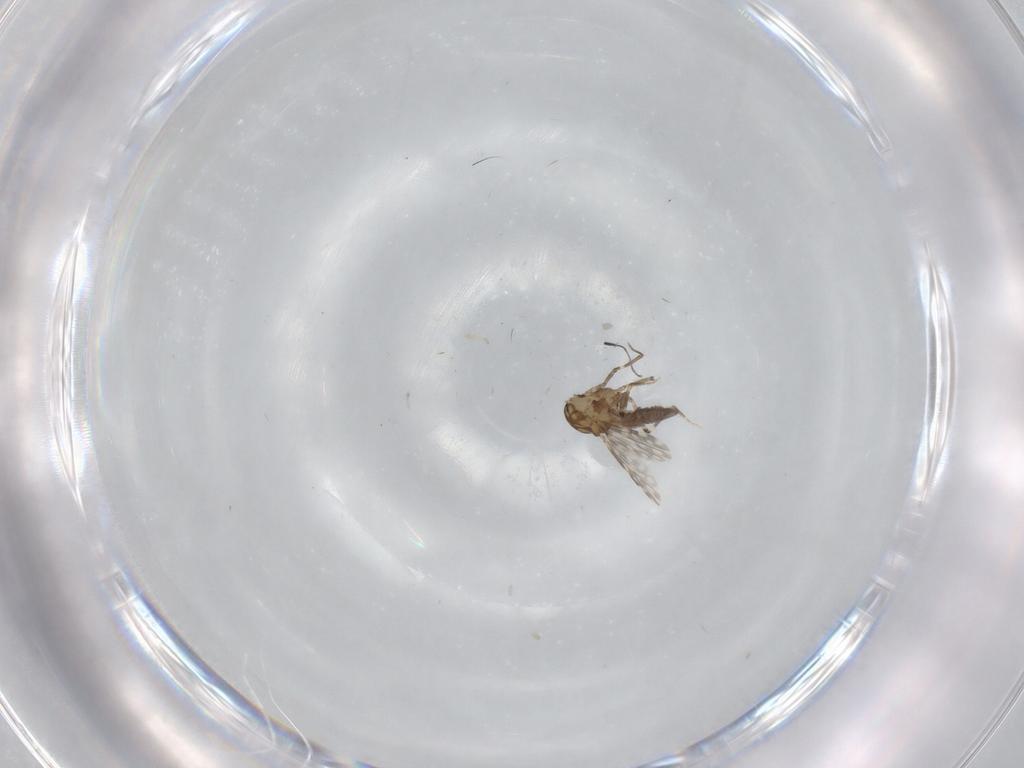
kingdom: Animalia
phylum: Arthropoda
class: Insecta
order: Diptera
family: Ceratopogonidae
